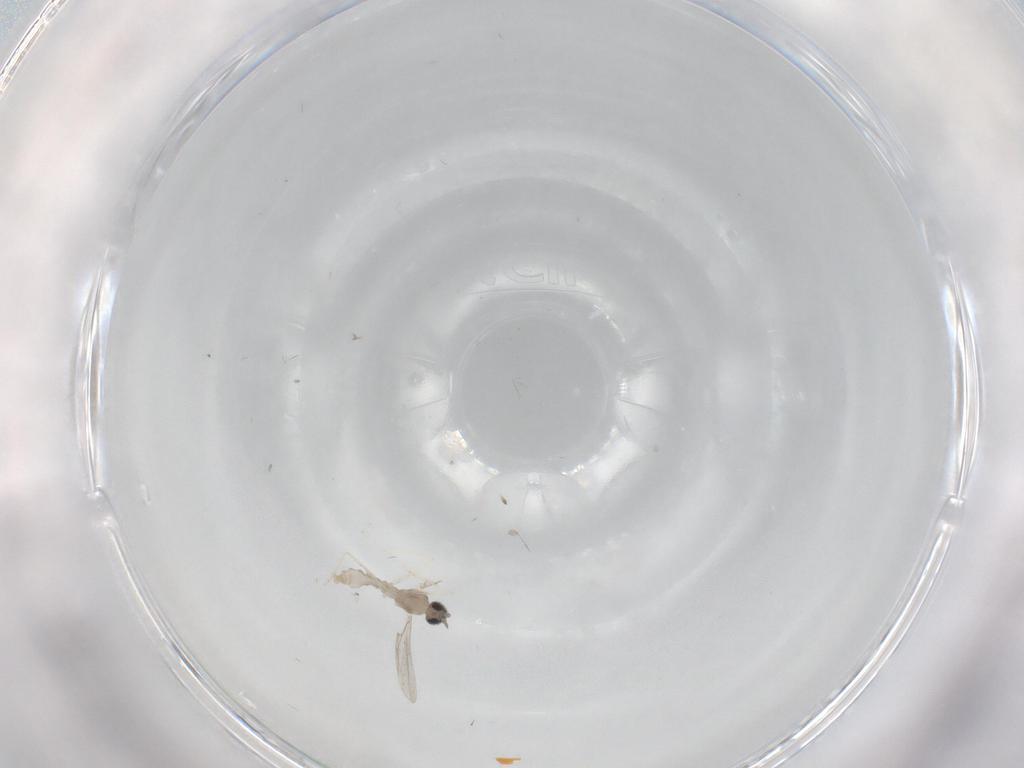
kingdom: Animalia
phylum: Arthropoda
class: Insecta
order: Diptera
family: Cecidomyiidae
